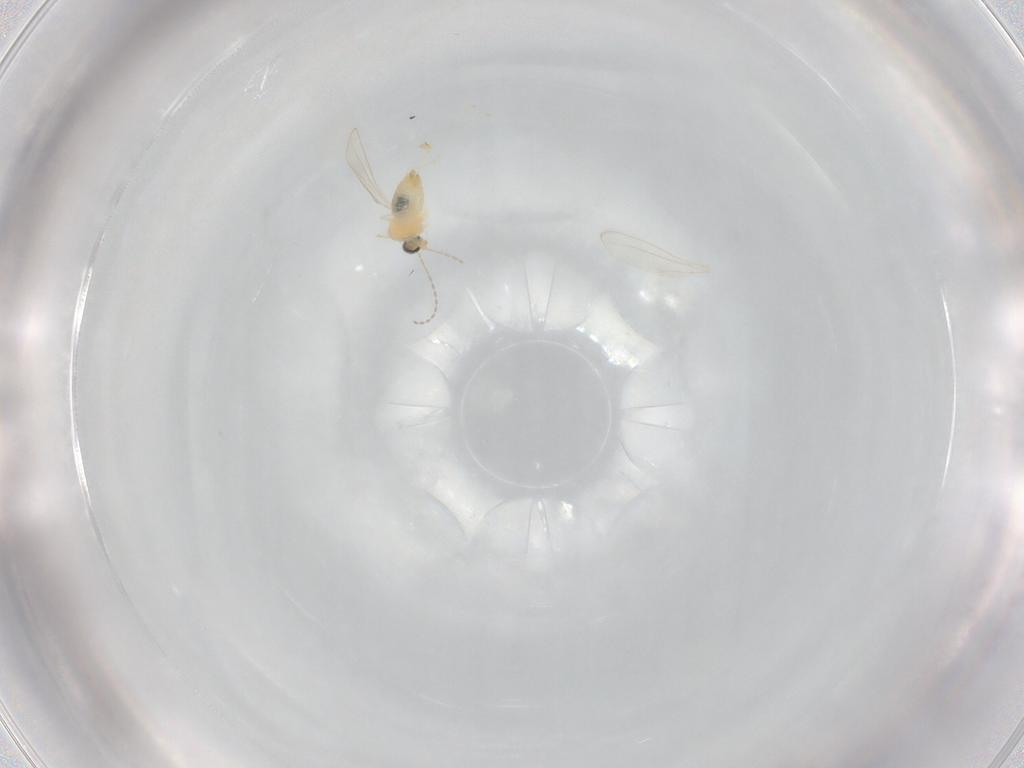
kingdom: Animalia
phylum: Arthropoda
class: Insecta
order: Diptera
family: Cecidomyiidae
